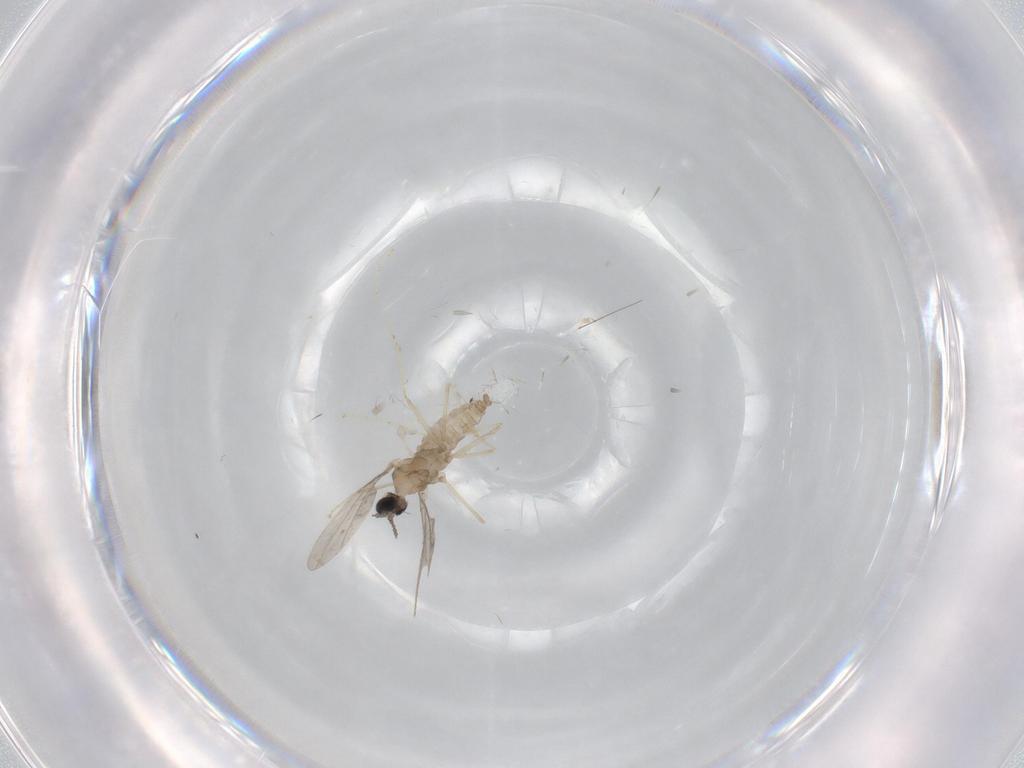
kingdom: Animalia
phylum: Arthropoda
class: Insecta
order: Diptera
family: Cecidomyiidae
